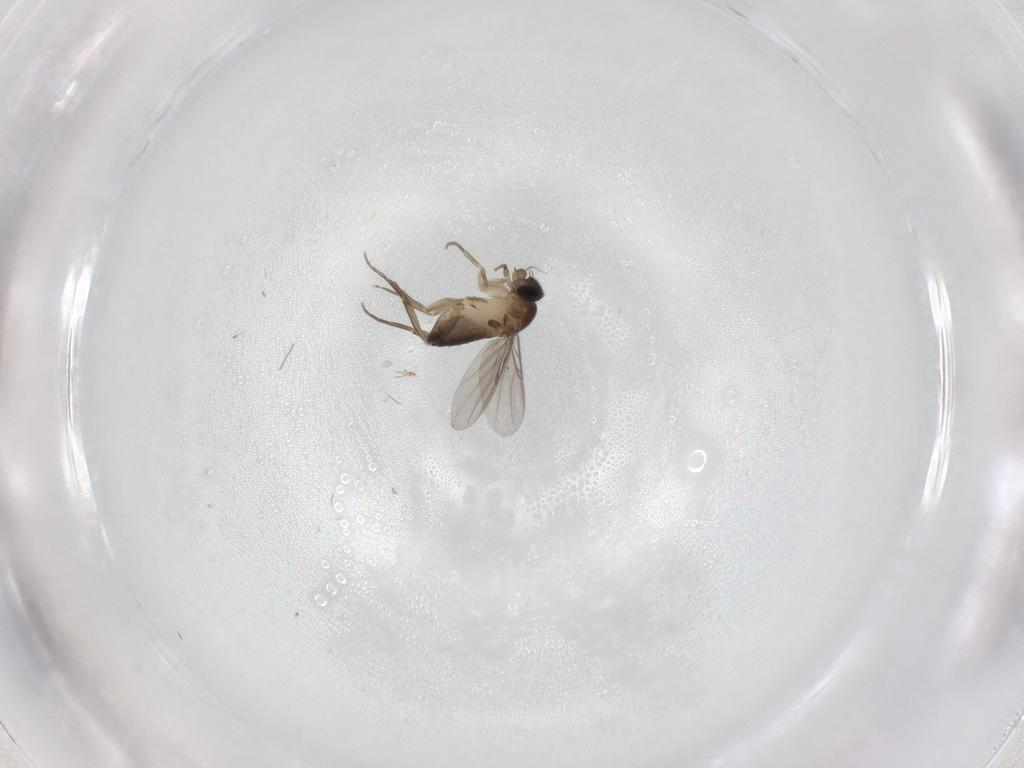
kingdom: Animalia
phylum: Arthropoda
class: Insecta
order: Diptera
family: Phoridae
